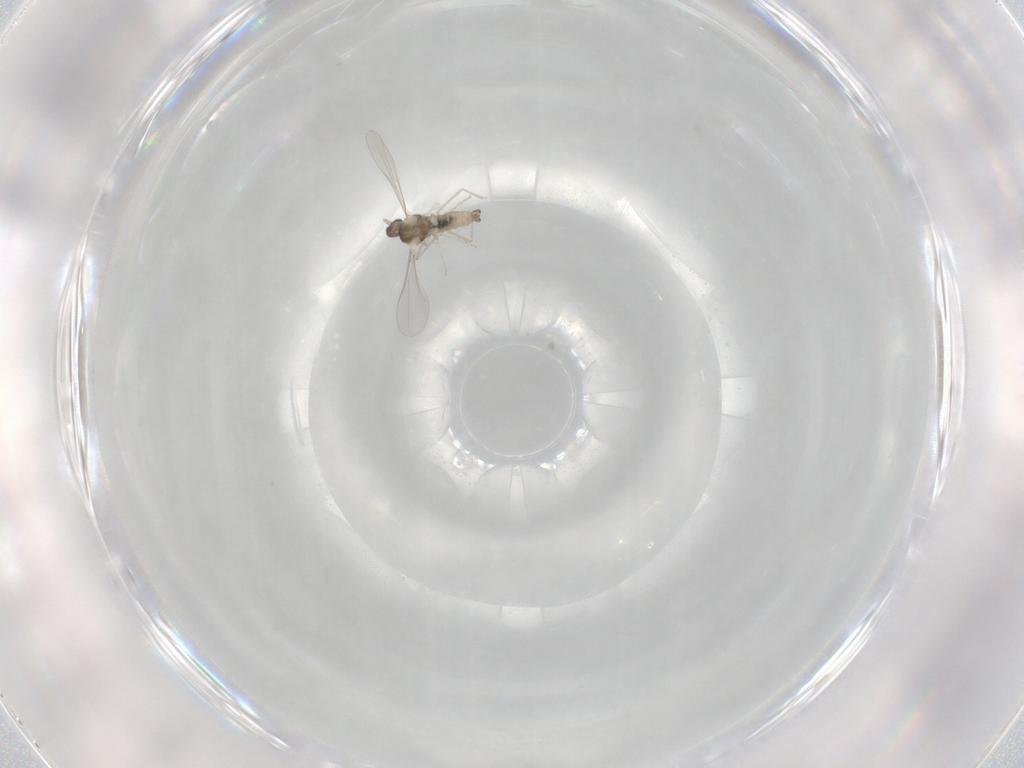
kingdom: Animalia
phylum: Arthropoda
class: Insecta
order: Diptera
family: Cecidomyiidae
